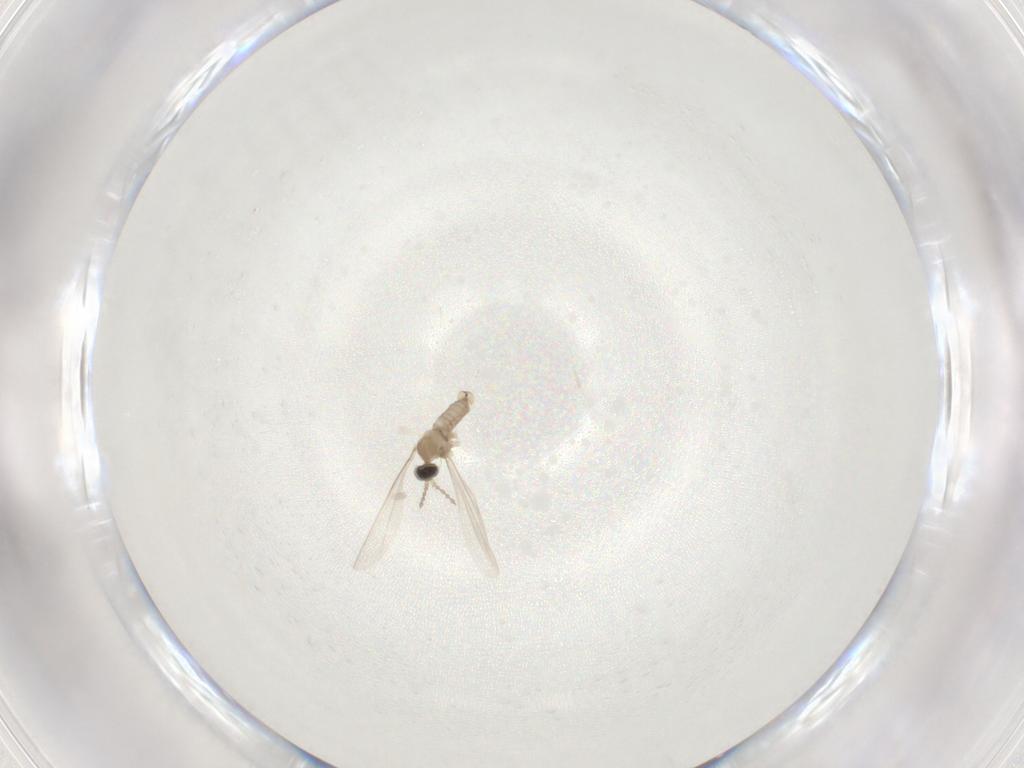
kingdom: Animalia
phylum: Arthropoda
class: Insecta
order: Diptera
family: Cecidomyiidae
